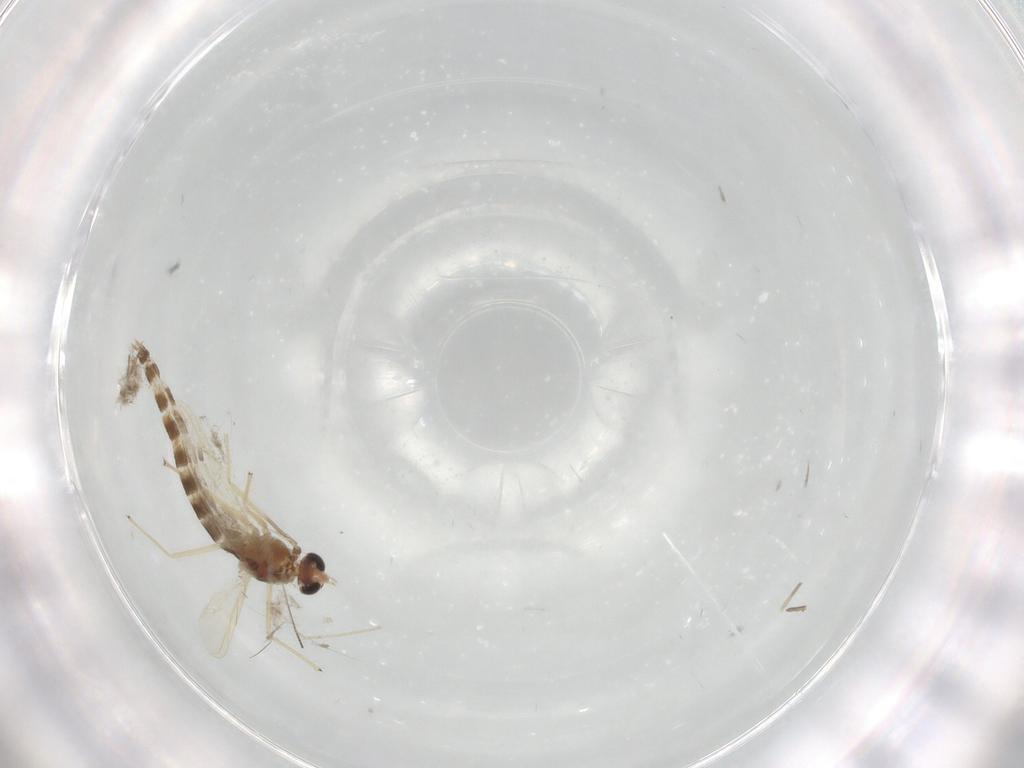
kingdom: Animalia
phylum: Arthropoda
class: Insecta
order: Diptera
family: Chironomidae
